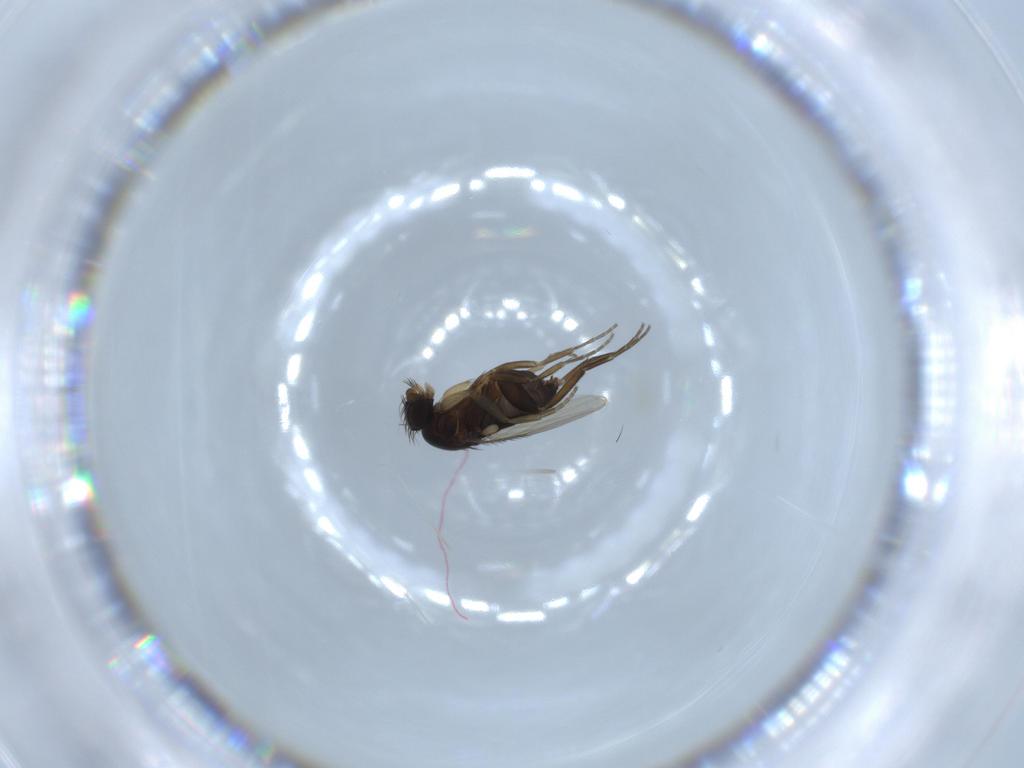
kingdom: Animalia
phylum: Arthropoda
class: Insecta
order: Diptera
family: Phoridae
